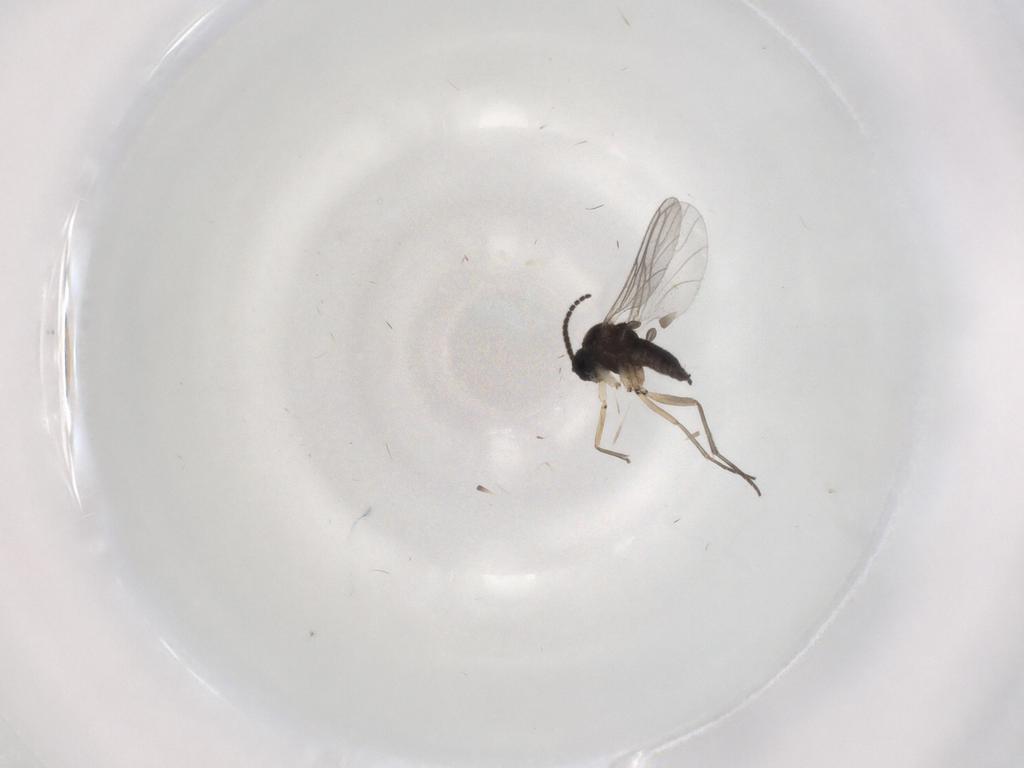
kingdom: Animalia
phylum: Arthropoda
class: Insecta
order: Diptera
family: Sciaridae
